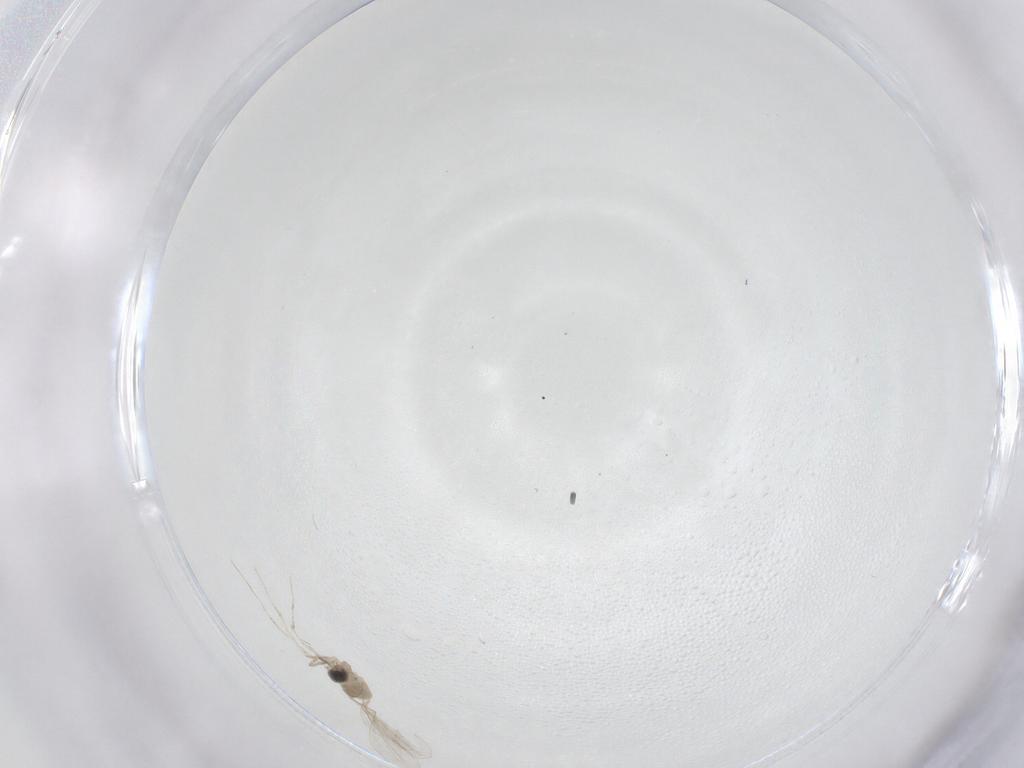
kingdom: Animalia
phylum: Arthropoda
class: Insecta
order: Diptera
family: Cecidomyiidae
